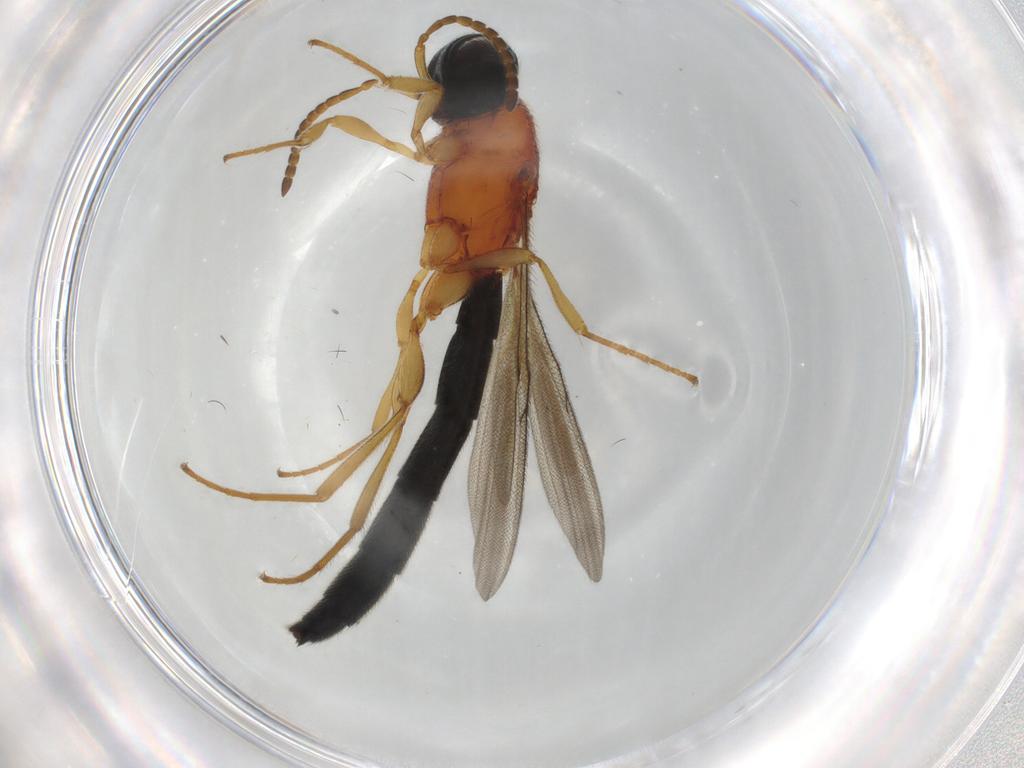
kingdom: Animalia
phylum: Arthropoda
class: Insecta
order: Hymenoptera
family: Scelionidae
